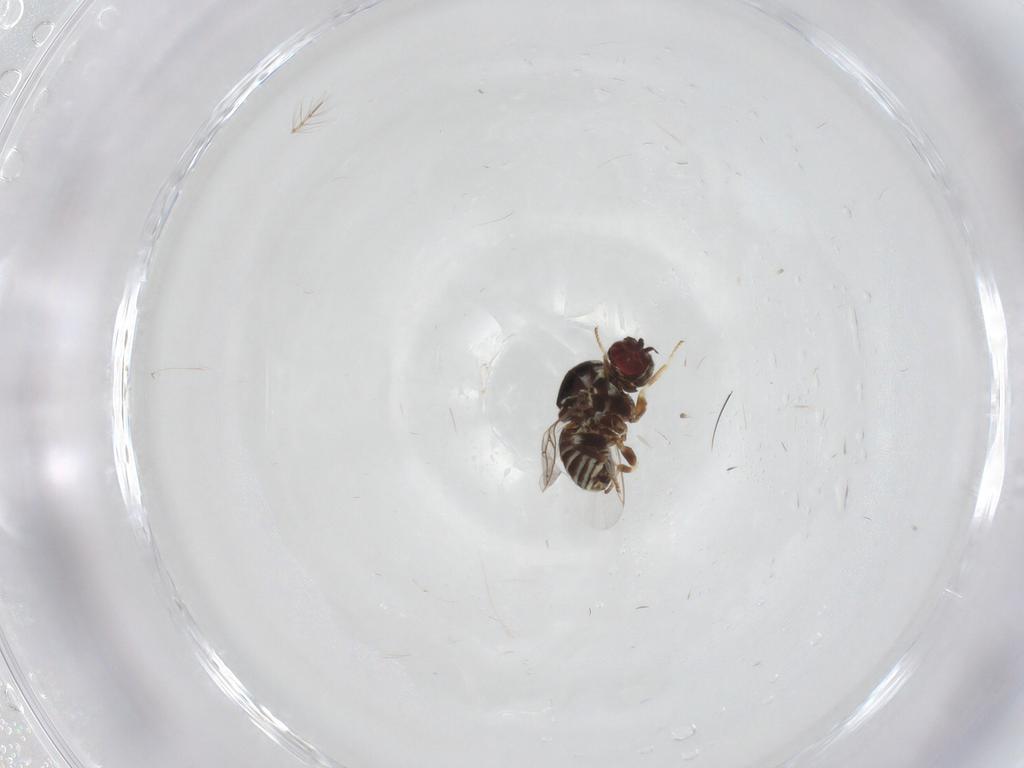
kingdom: Animalia
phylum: Arthropoda
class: Insecta
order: Diptera
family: Mythicomyiidae
